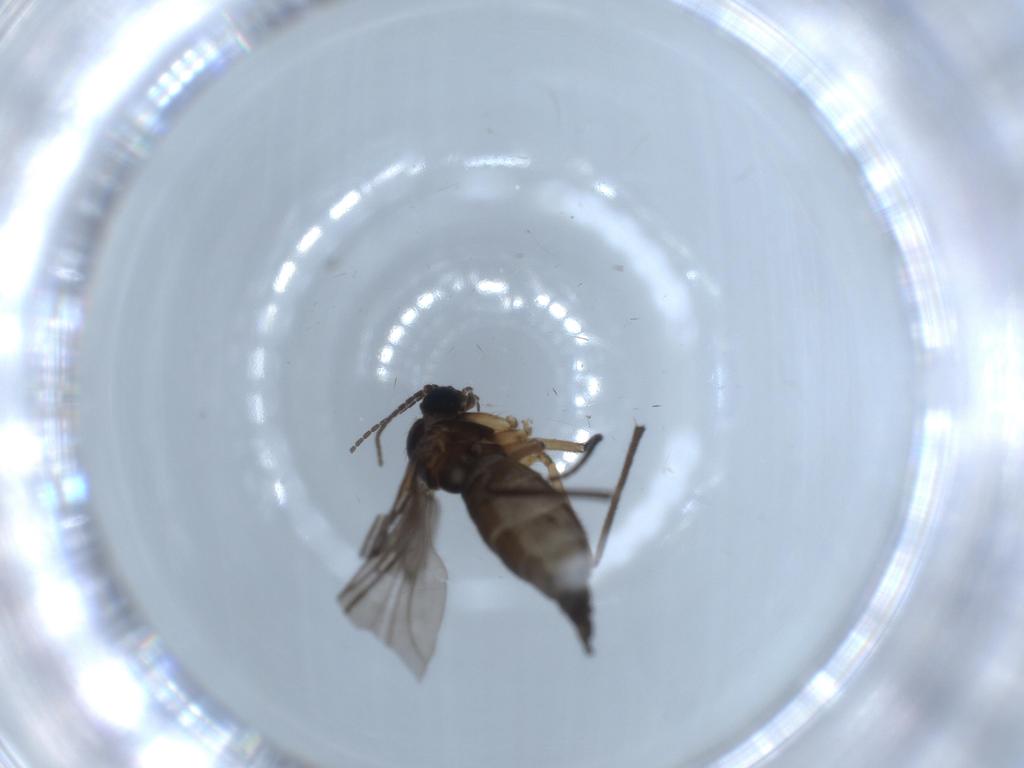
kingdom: Animalia
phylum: Arthropoda
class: Insecta
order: Diptera
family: Sciaridae
